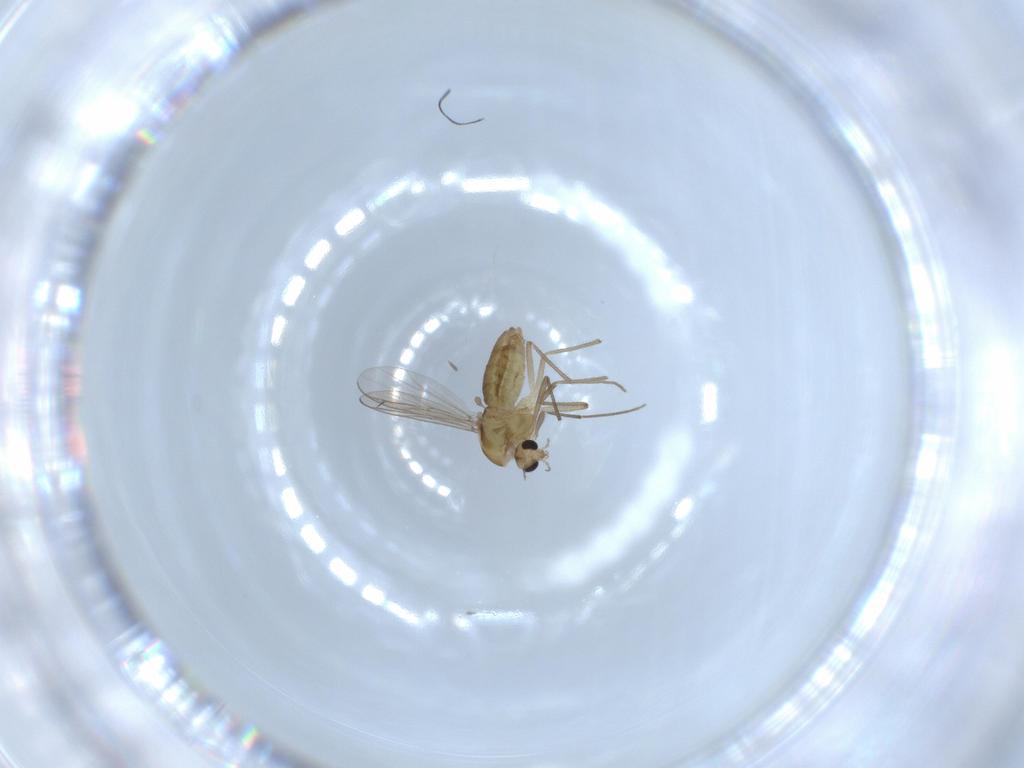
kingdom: Animalia
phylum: Arthropoda
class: Insecta
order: Diptera
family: Chironomidae
